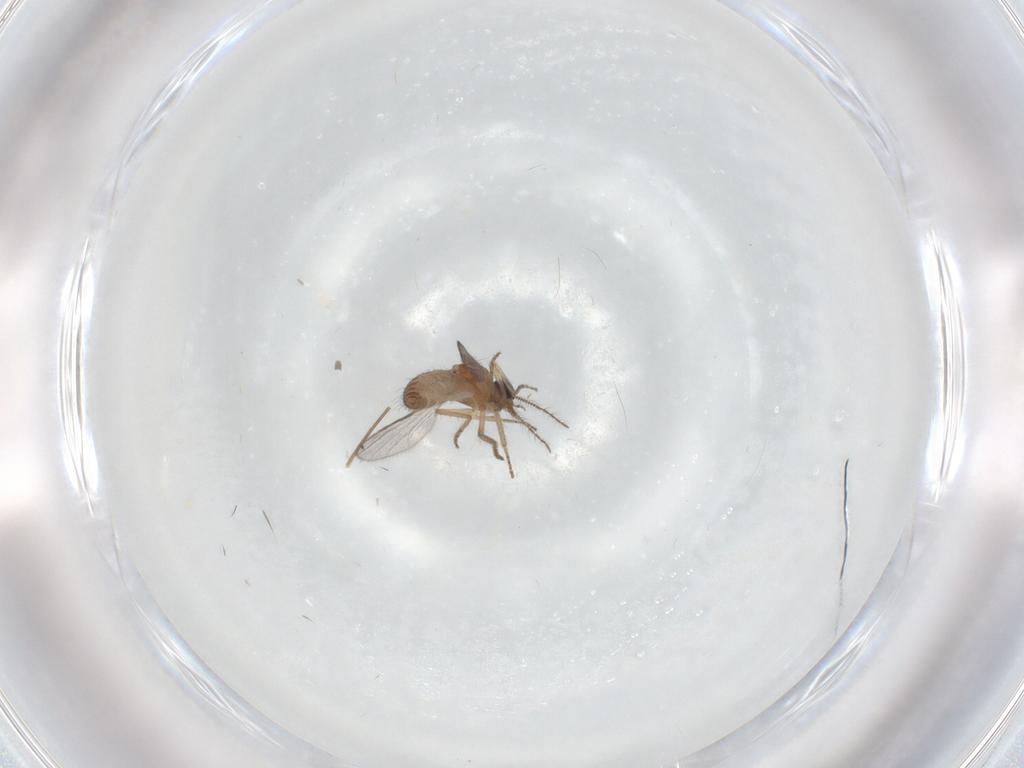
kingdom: Animalia
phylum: Arthropoda
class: Insecta
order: Diptera
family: Ceratopogonidae
